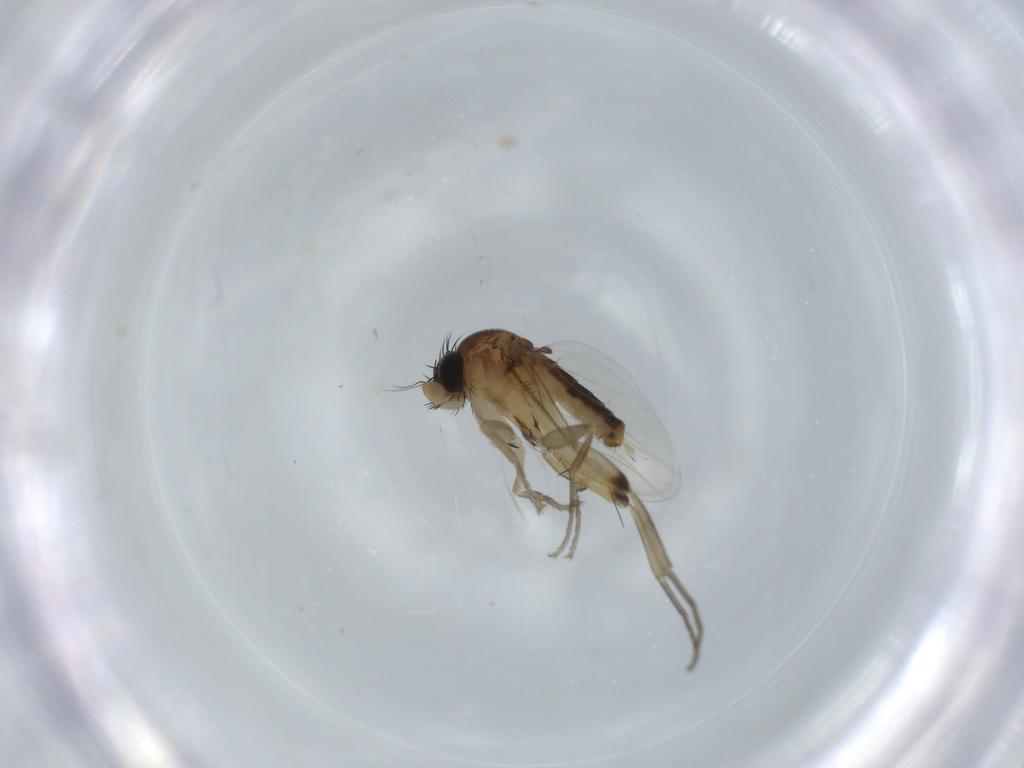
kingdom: Animalia
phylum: Arthropoda
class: Insecta
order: Diptera
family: Phoridae
